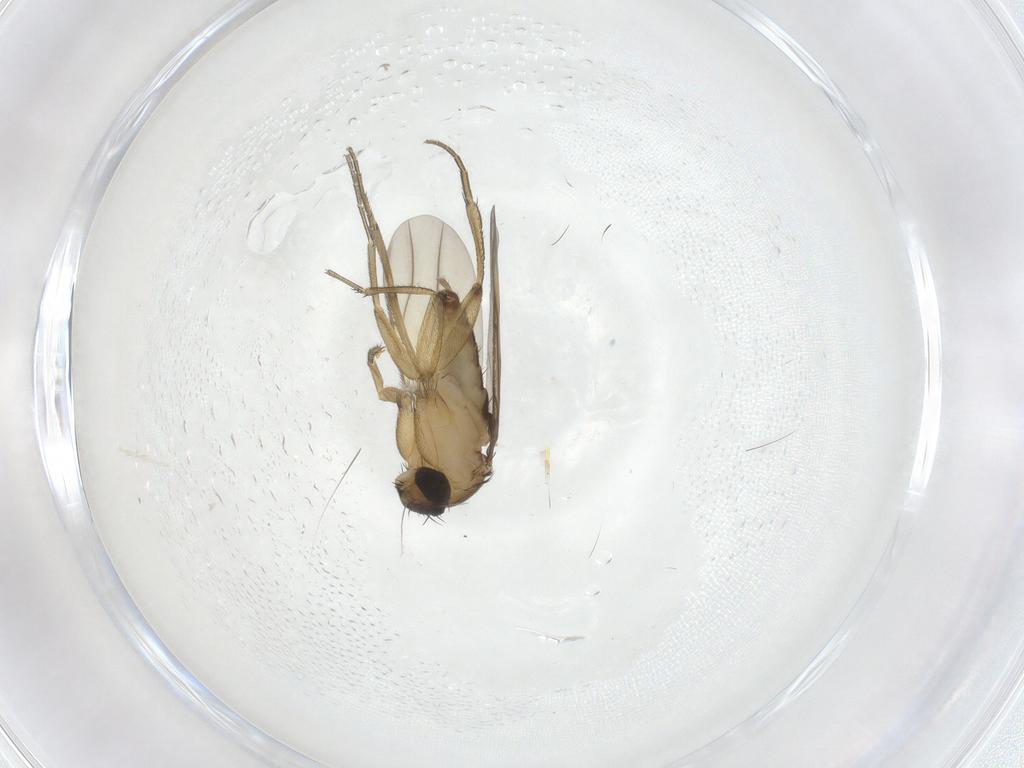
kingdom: Animalia
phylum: Arthropoda
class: Insecta
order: Diptera
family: Phoridae
